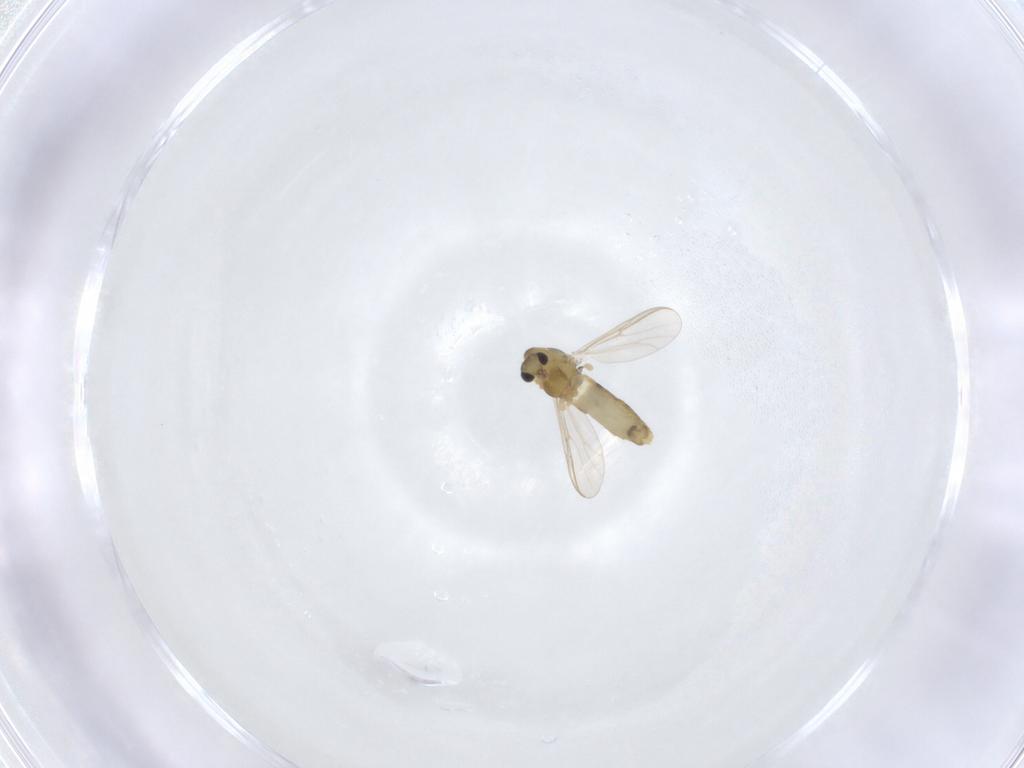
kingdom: Animalia
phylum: Arthropoda
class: Insecta
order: Diptera
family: Chironomidae
